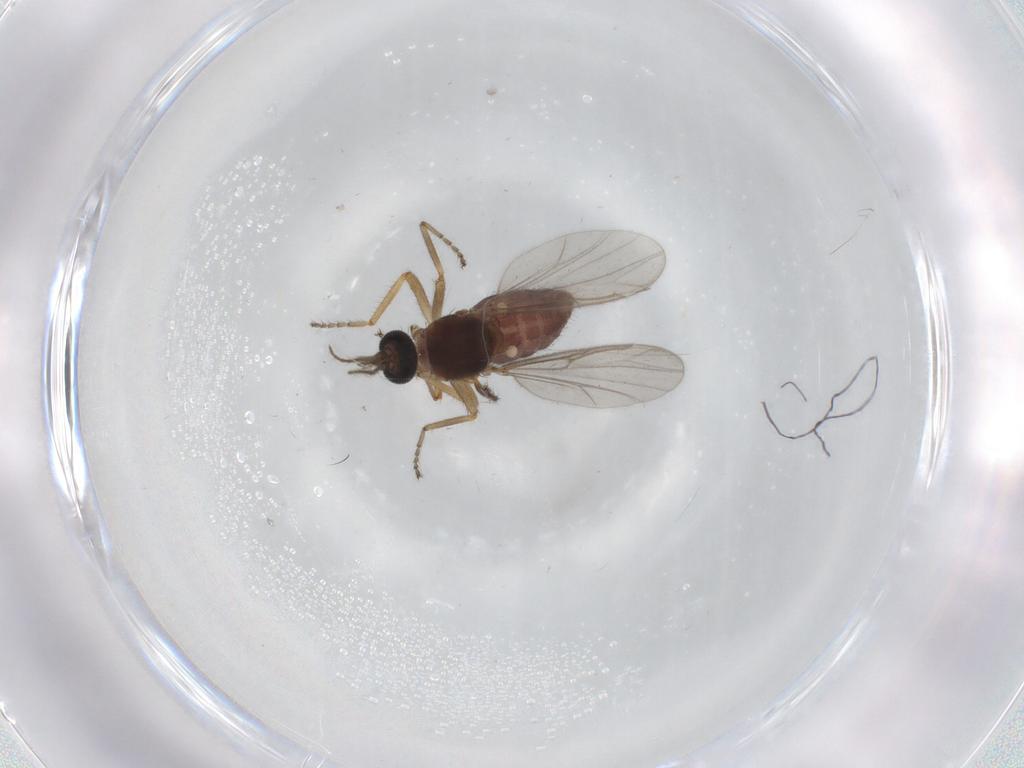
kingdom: Animalia
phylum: Arthropoda
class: Insecta
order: Diptera
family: Ceratopogonidae
